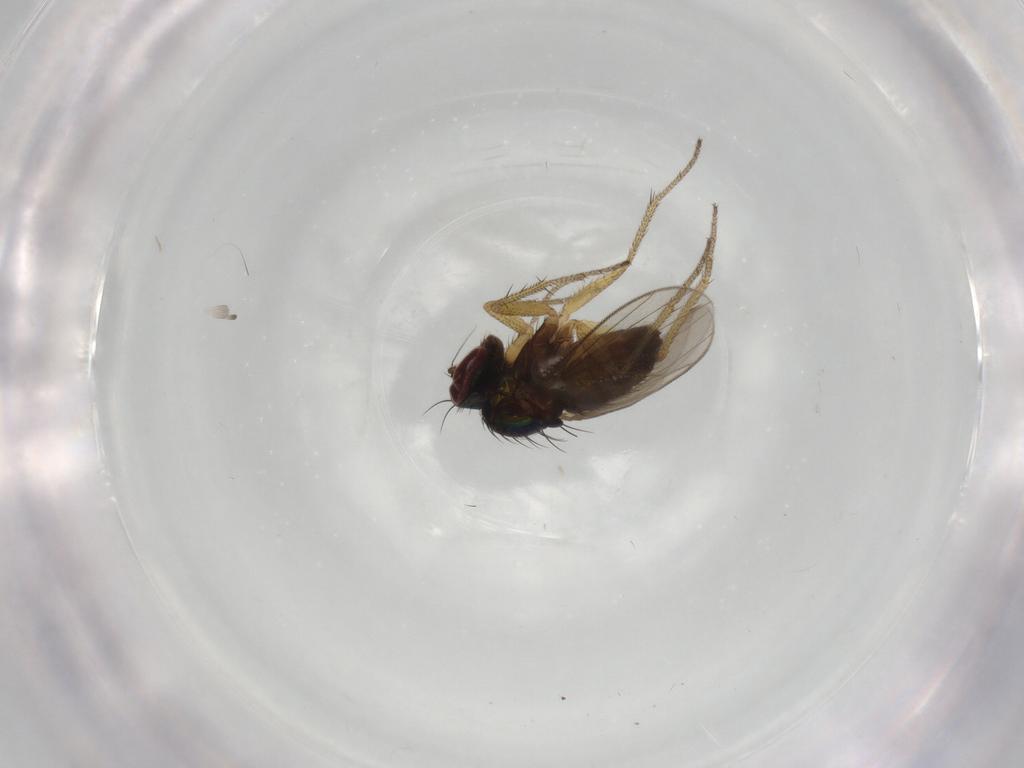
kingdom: Animalia
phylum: Arthropoda
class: Insecta
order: Diptera
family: Dolichopodidae
